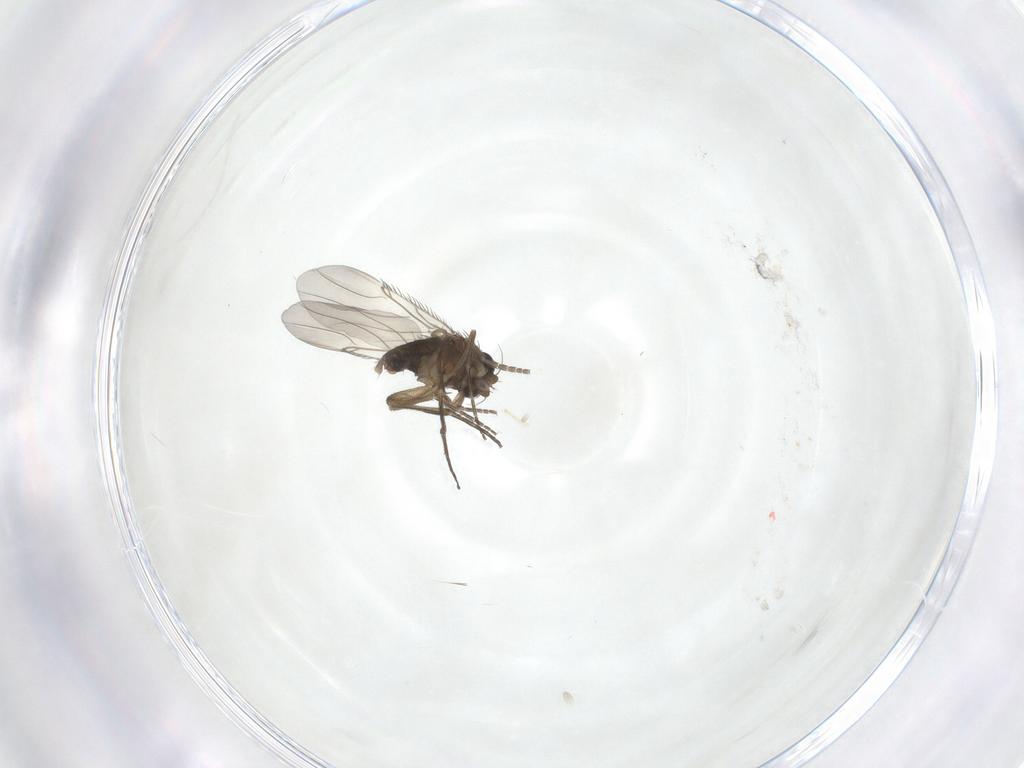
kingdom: Animalia
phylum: Arthropoda
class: Insecta
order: Diptera
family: Phoridae
